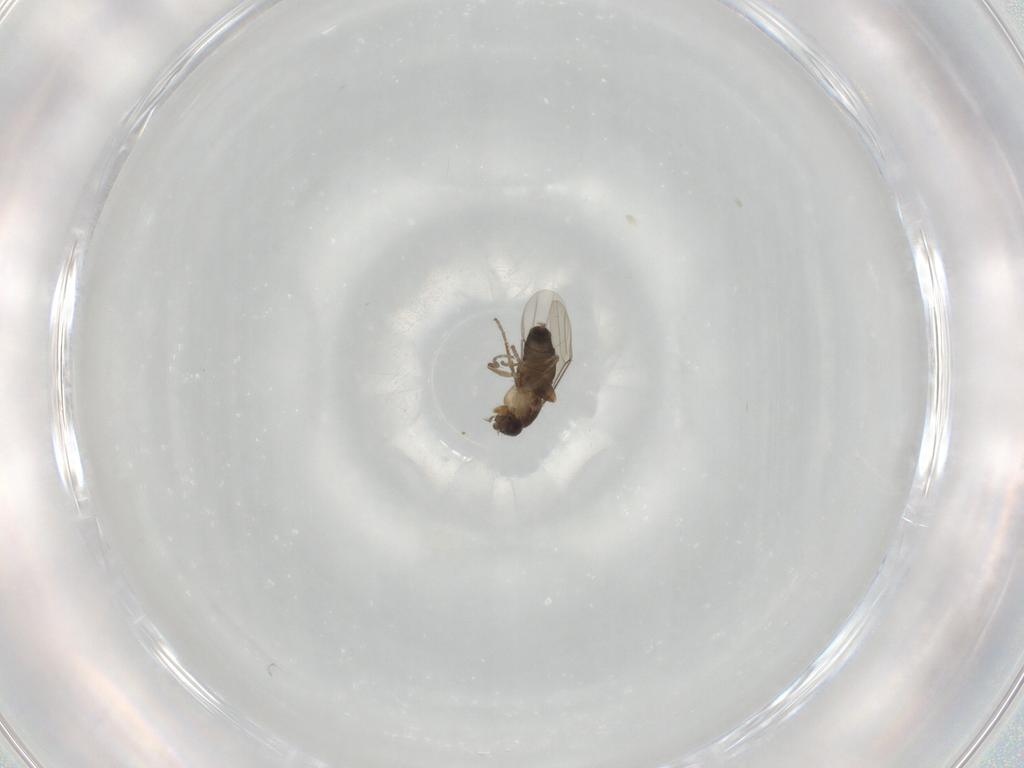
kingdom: Animalia
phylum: Arthropoda
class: Insecta
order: Diptera
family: Phoridae
